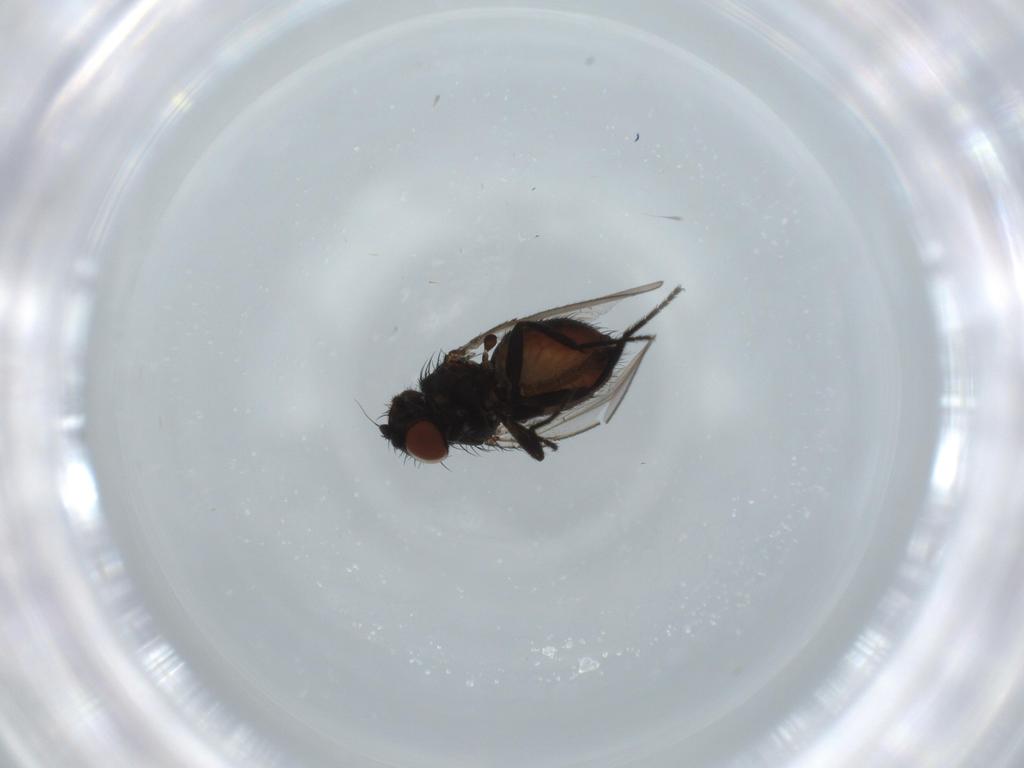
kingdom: Animalia
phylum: Arthropoda
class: Insecta
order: Diptera
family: Milichiidae
